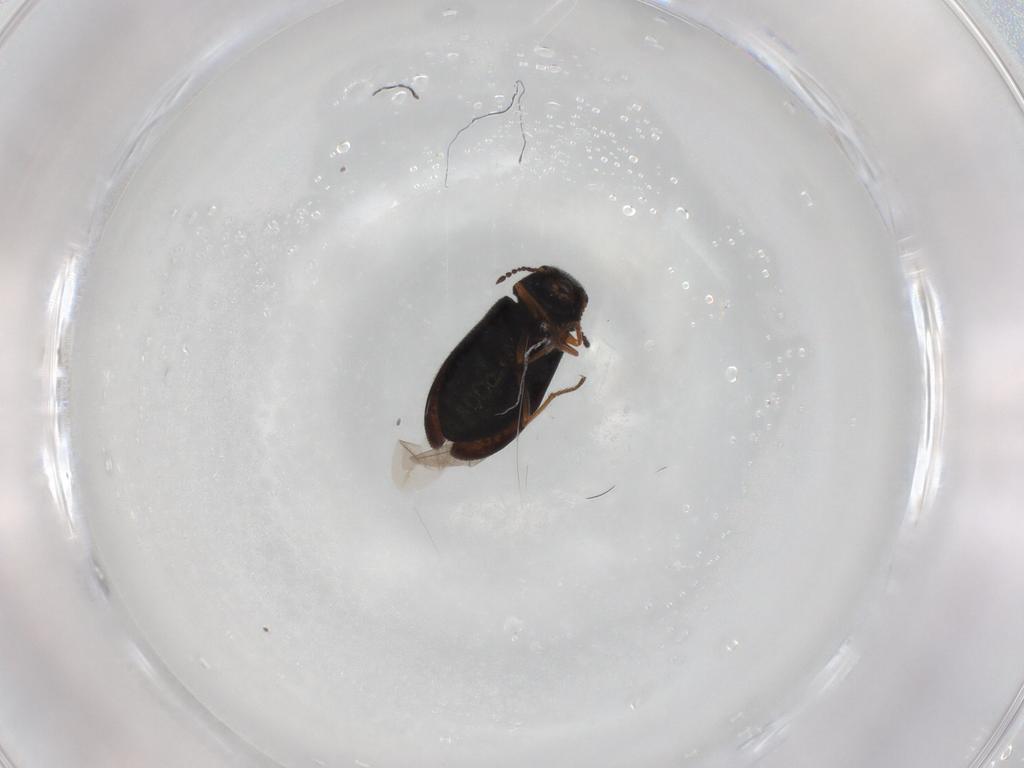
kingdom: Animalia
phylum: Arthropoda
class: Insecta
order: Coleoptera
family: Melyridae
